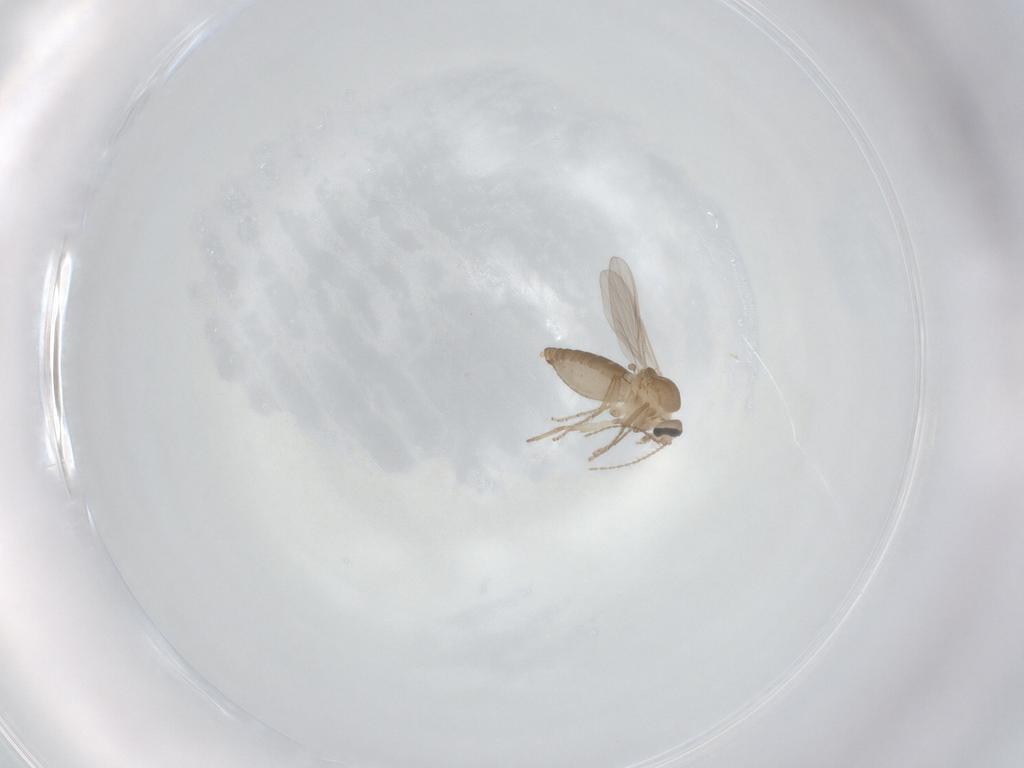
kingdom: Animalia
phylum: Arthropoda
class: Insecta
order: Diptera
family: Ceratopogonidae
